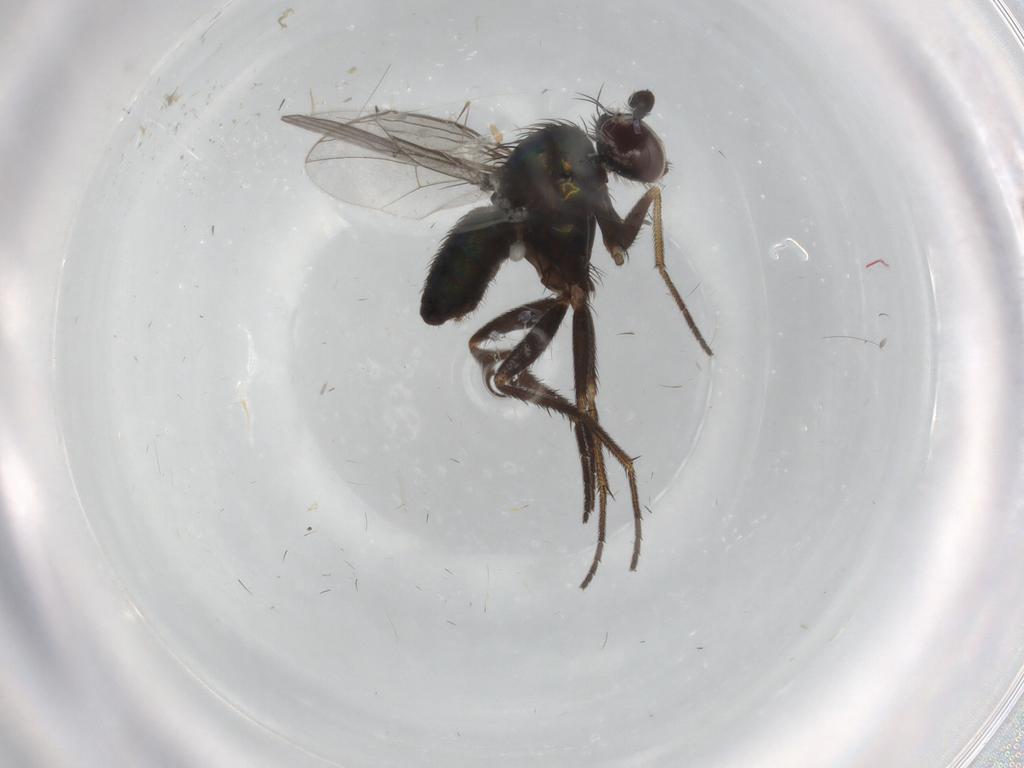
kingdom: Animalia
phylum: Arthropoda
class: Insecta
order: Diptera
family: Dolichopodidae
